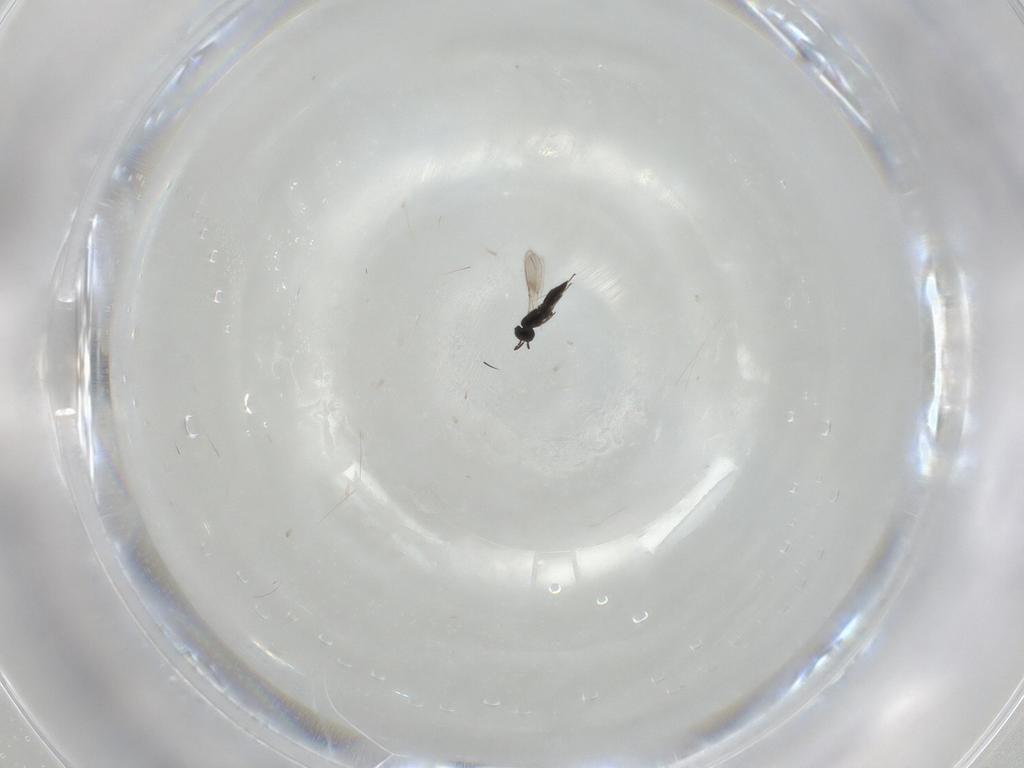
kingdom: Animalia
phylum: Arthropoda
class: Insecta
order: Hymenoptera
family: Scelionidae
